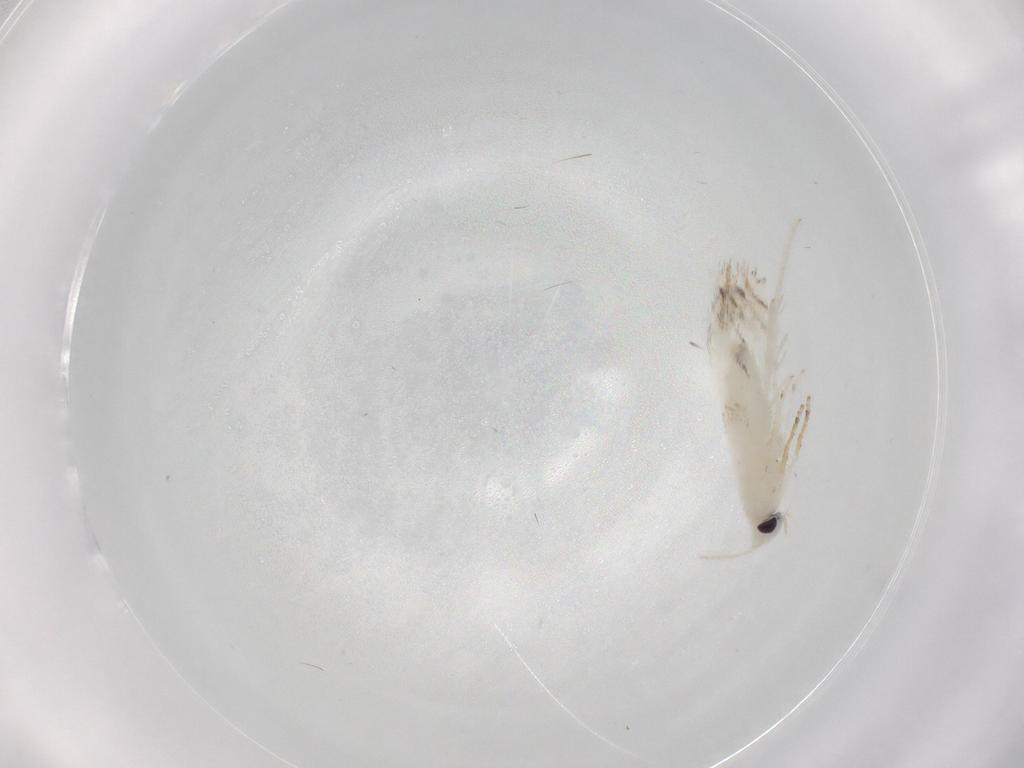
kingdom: Animalia
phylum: Arthropoda
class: Insecta
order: Lepidoptera
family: Gracillariidae
